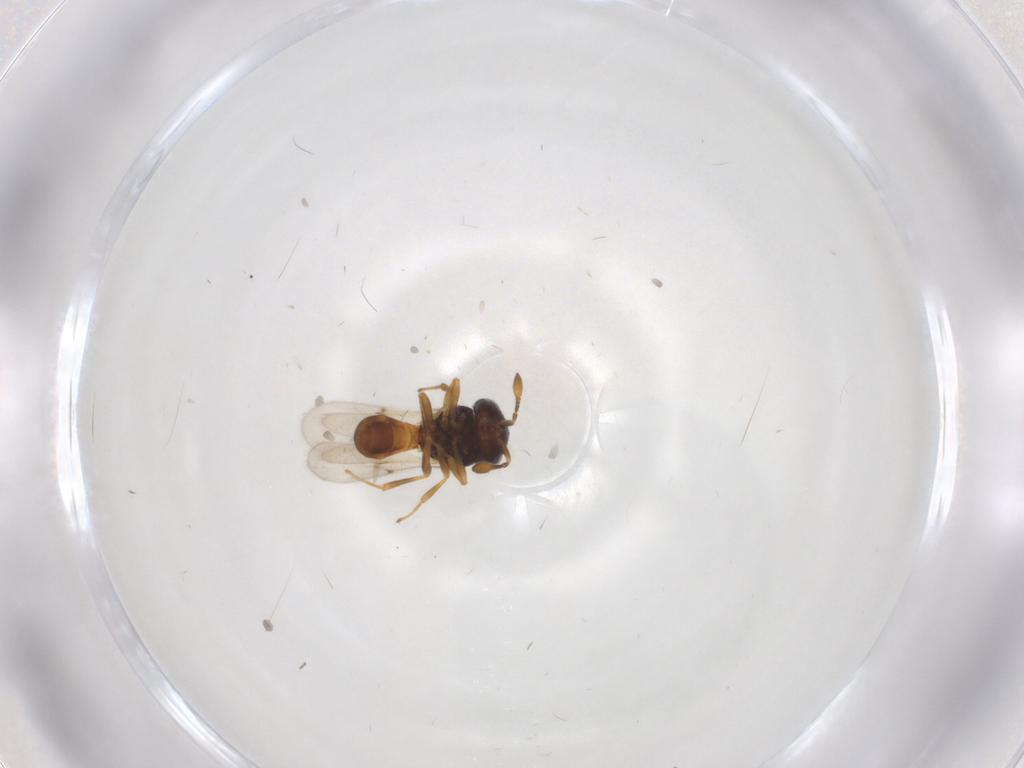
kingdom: Animalia
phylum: Arthropoda
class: Insecta
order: Hymenoptera
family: Scelionidae
